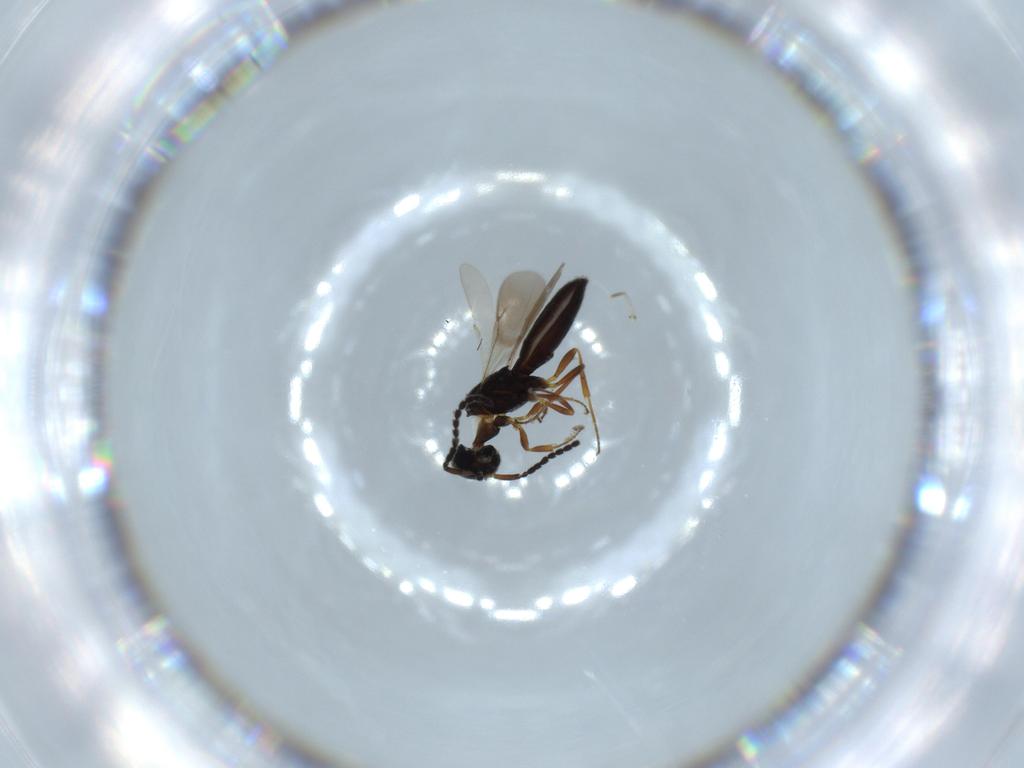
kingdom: Animalia
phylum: Arthropoda
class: Insecta
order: Hymenoptera
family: Scelionidae
